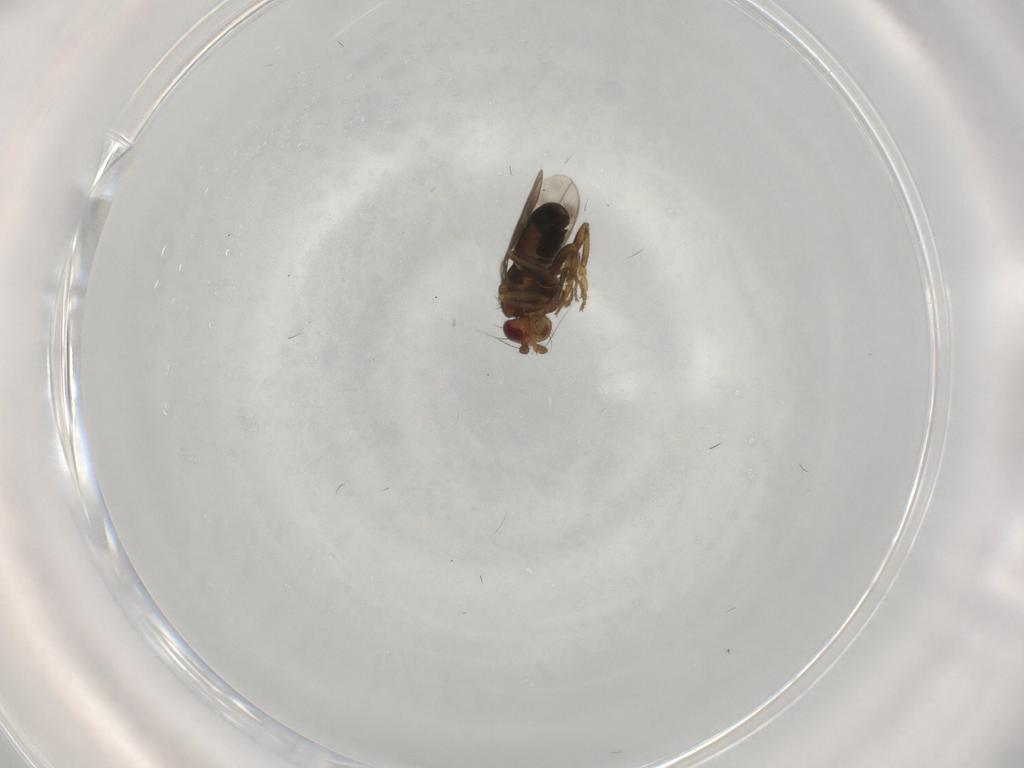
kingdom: Animalia
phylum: Arthropoda
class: Insecta
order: Diptera
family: Sphaeroceridae
